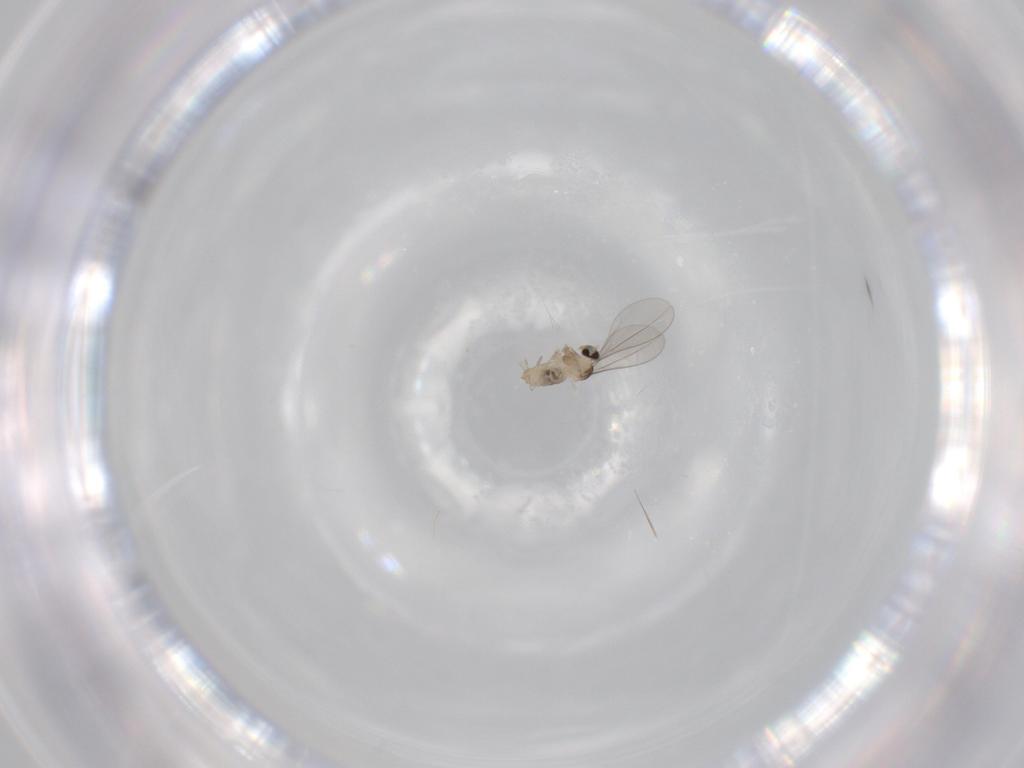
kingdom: Animalia
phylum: Arthropoda
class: Insecta
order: Diptera
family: Cecidomyiidae
